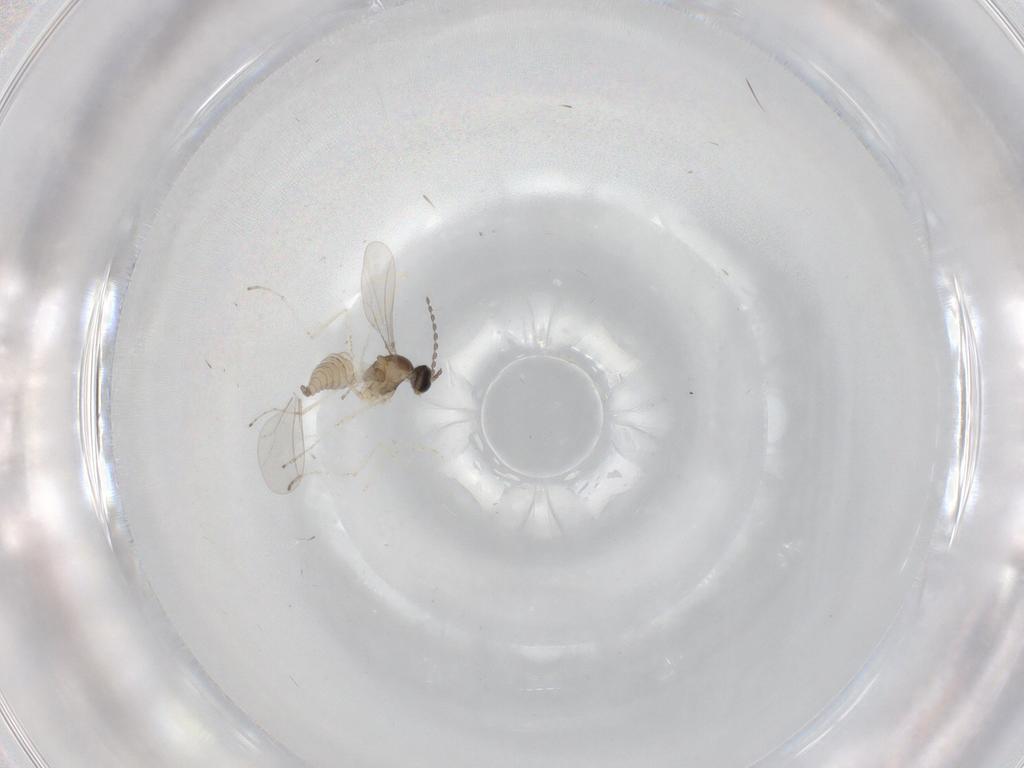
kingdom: Animalia
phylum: Arthropoda
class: Insecta
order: Diptera
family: Cecidomyiidae
